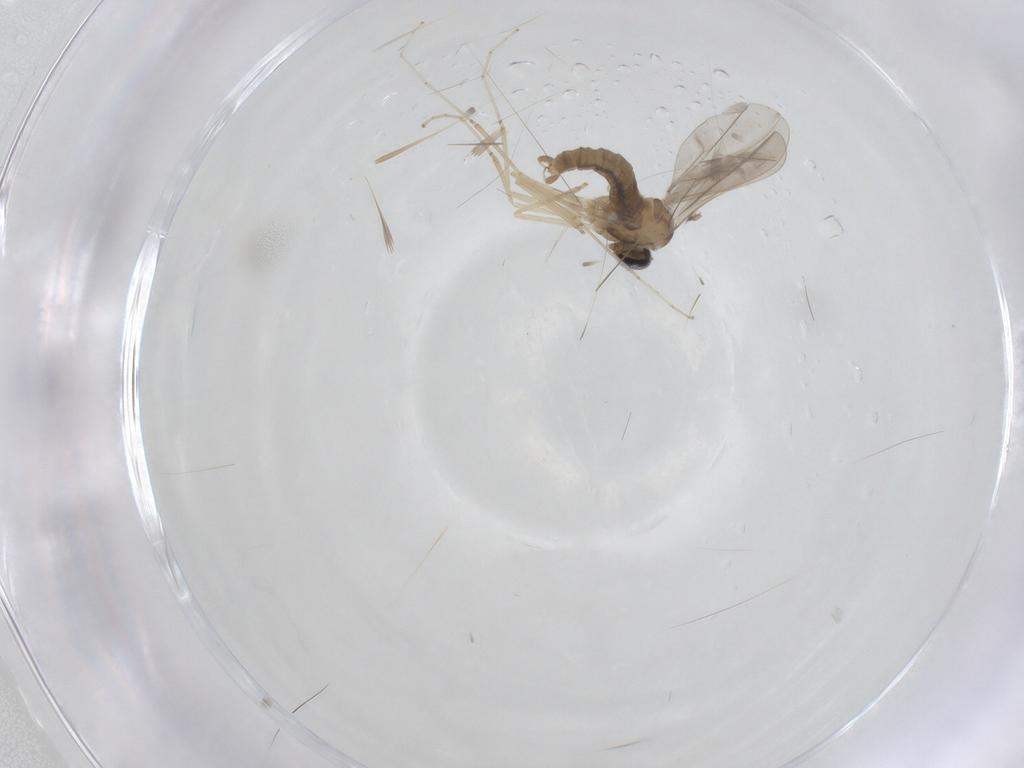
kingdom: Animalia
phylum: Arthropoda
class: Insecta
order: Diptera
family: Cecidomyiidae
